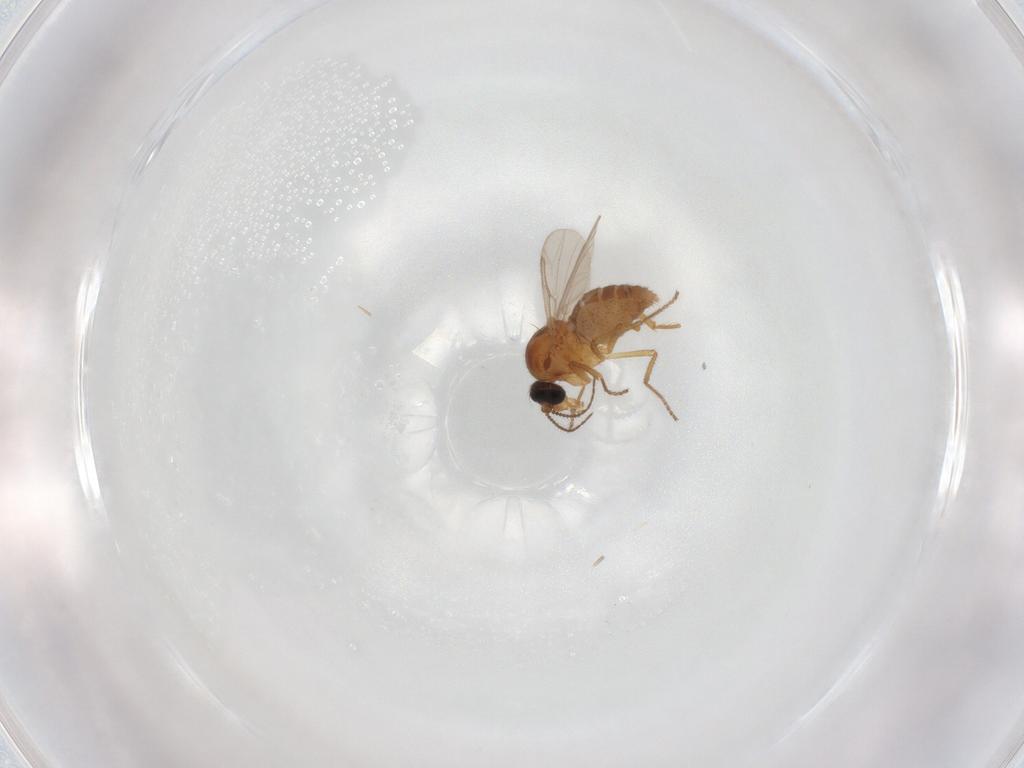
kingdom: Animalia
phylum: Arthropoda
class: Insecta
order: Diptera
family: Ceratopogonidae
